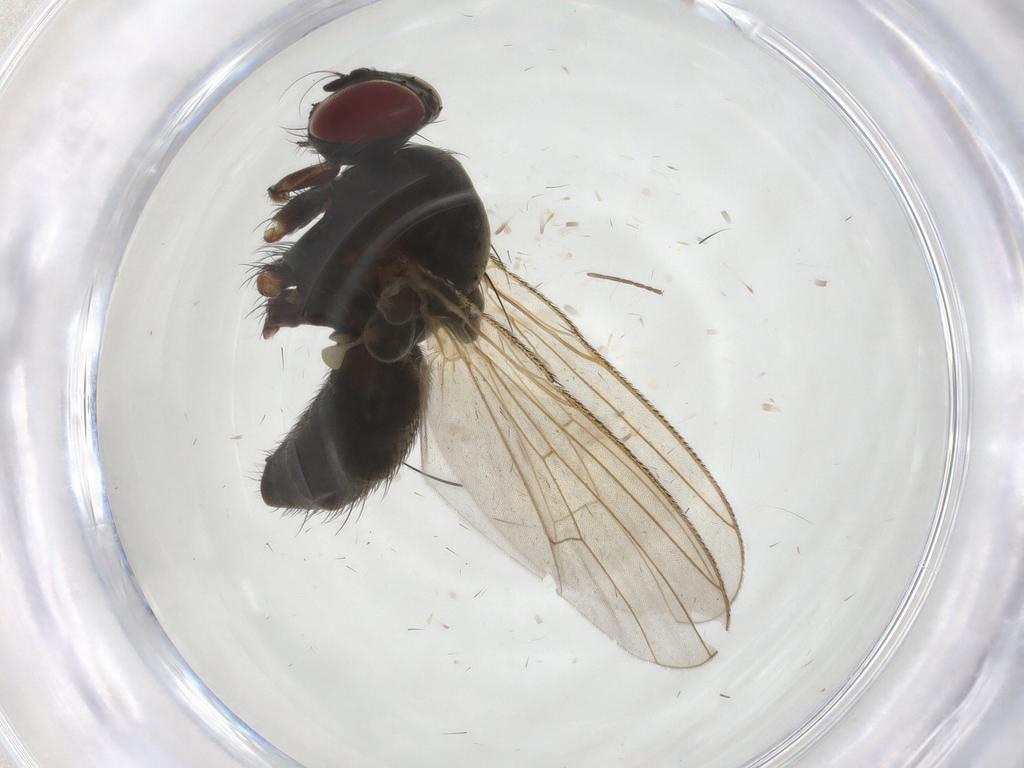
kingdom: Animalia
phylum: Arthropoda
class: Insecta
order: Diptera
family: Cecidomyiidae
